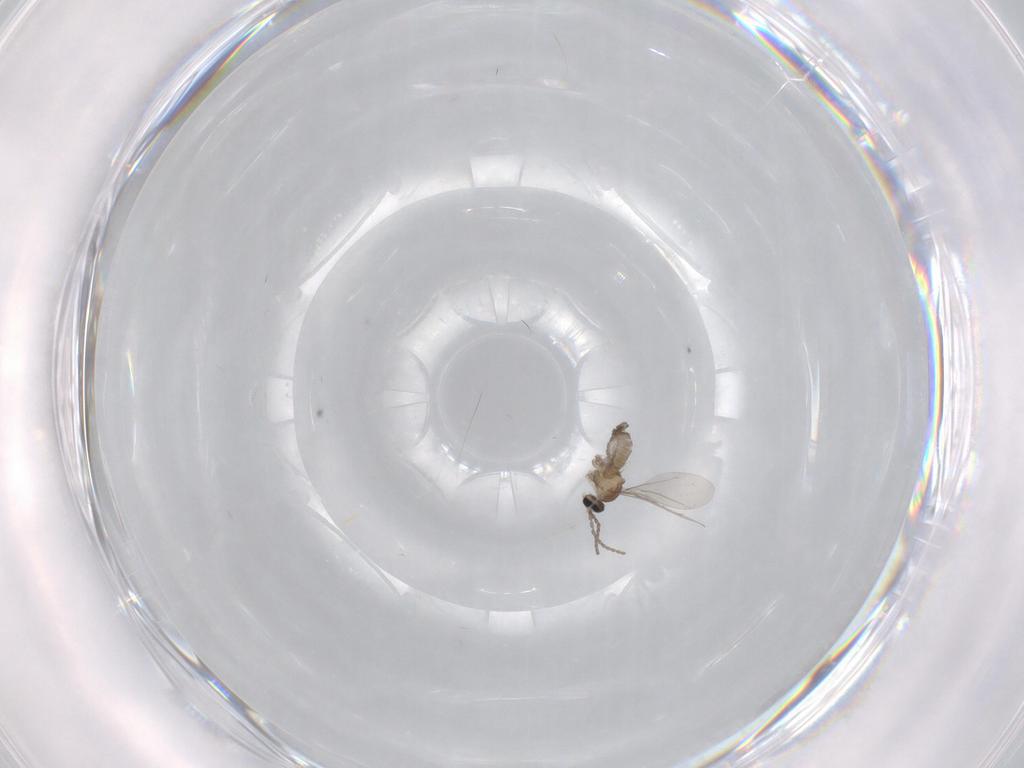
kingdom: Animalia
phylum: Arthropoda
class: Insecta
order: Diptera
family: Cecidomyiidae
